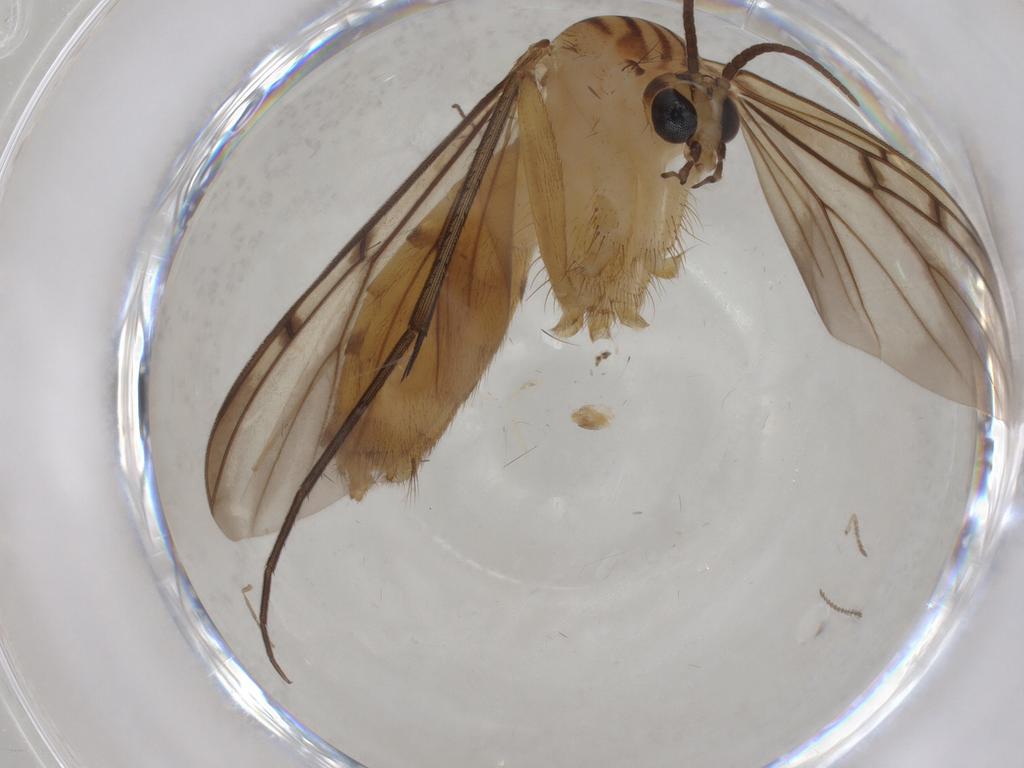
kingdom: Animalia
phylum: Arthropoda
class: Insecta
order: Diptera
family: Mycetophilidae
